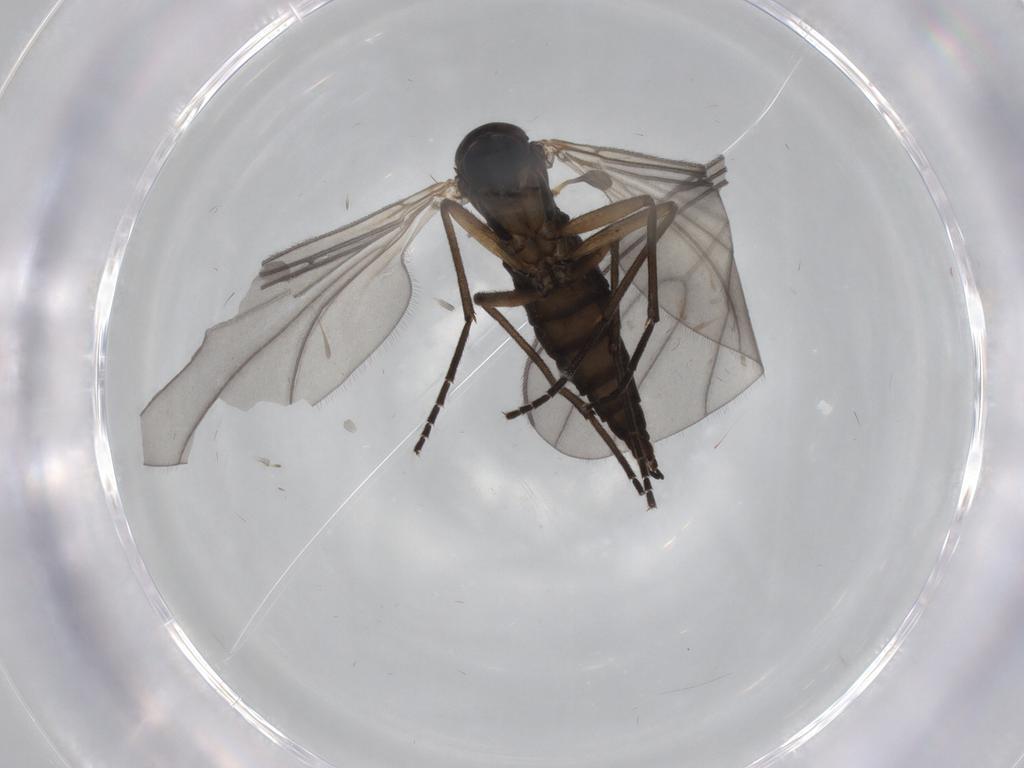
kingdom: Animalia
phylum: Arthropoda
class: Insecta
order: Diptera
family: Sciaridae
